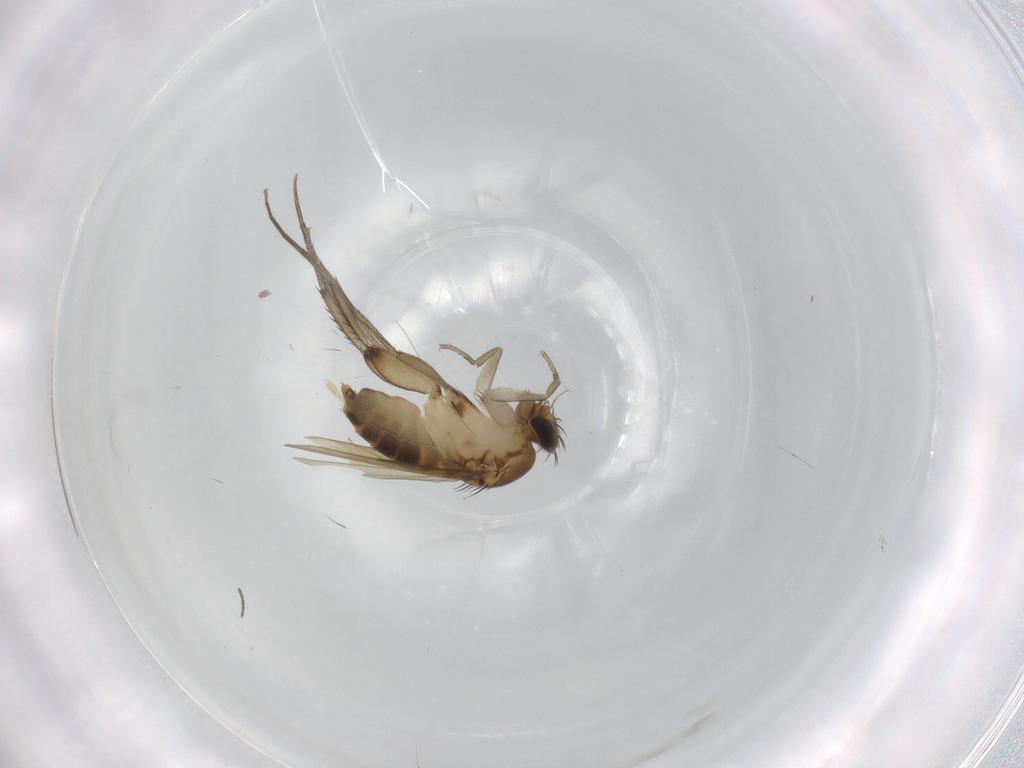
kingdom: Animalia
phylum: Arthropoda
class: Insecta
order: Diptera
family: Phoridae
